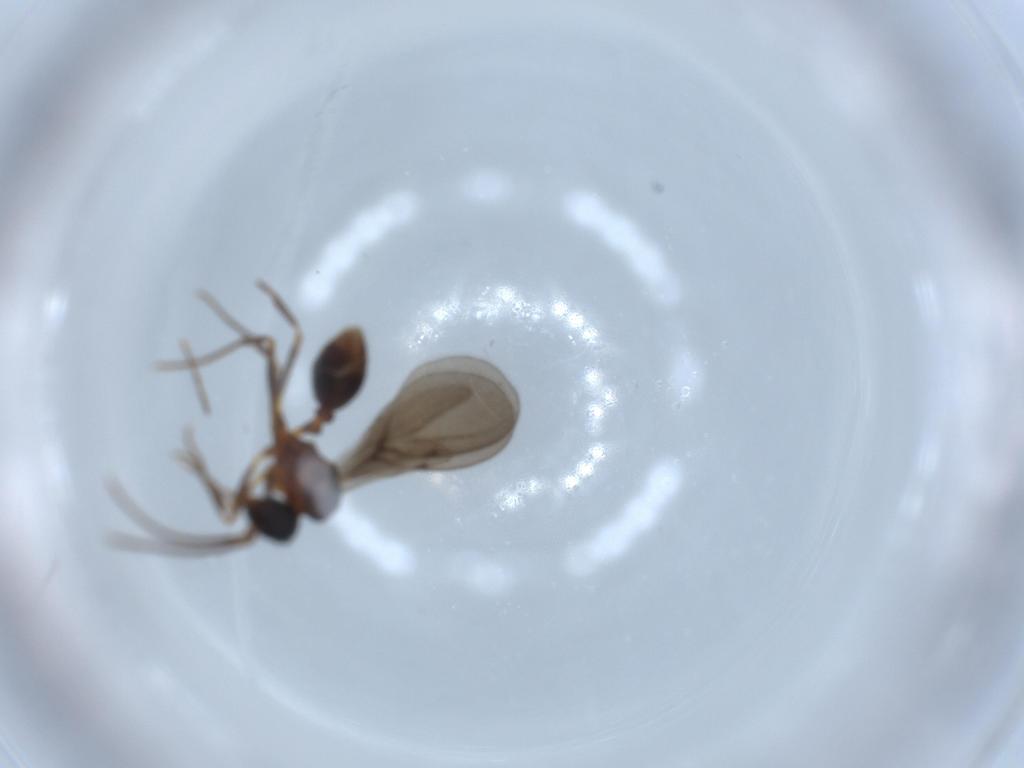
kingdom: Animalia
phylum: Arthropoda
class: Insecta
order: Hymenoptera
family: Formicidae
